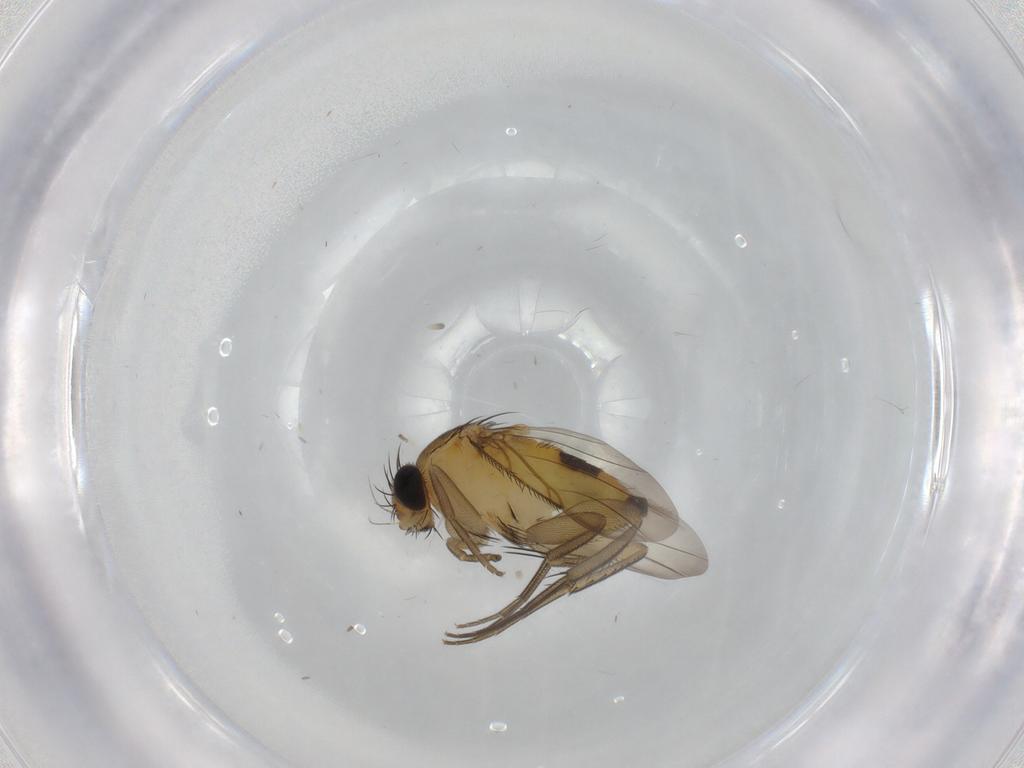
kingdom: Animalia
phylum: Arthropoda
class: Insecta
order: Diptera
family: Phoridae
